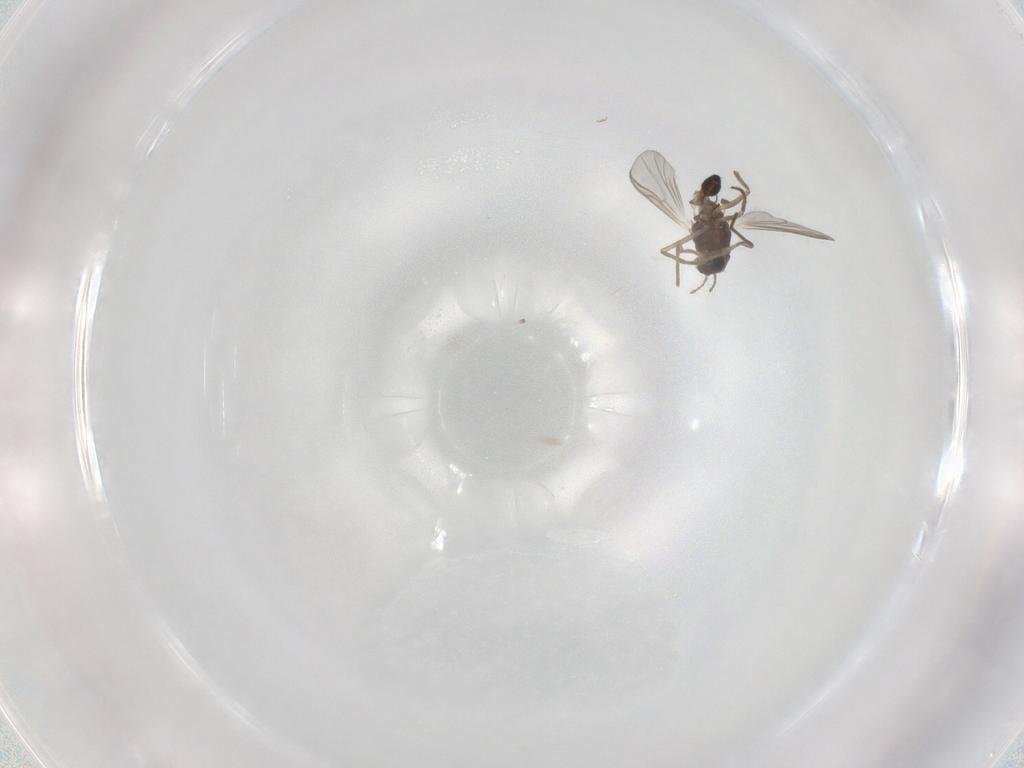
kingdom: Animalia
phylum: Arthropoda
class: Insecta
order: Diptera
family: Chironomidae
